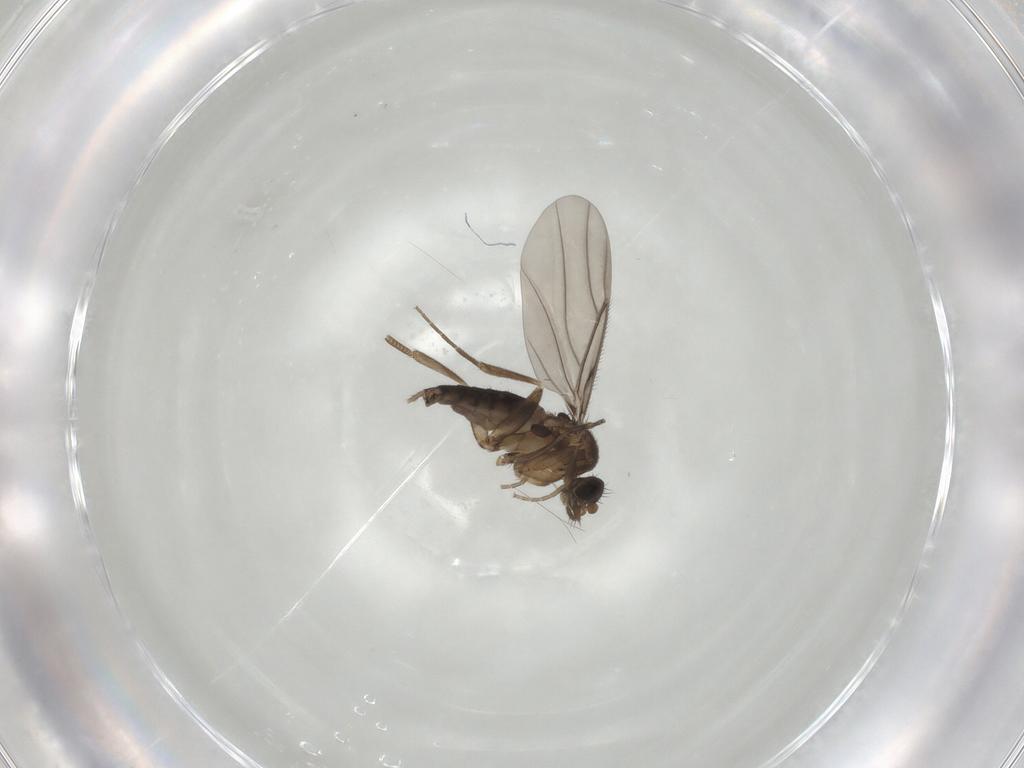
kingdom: Animalia
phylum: Arthropoda
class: Insecta
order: Diptera
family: Phoridae
